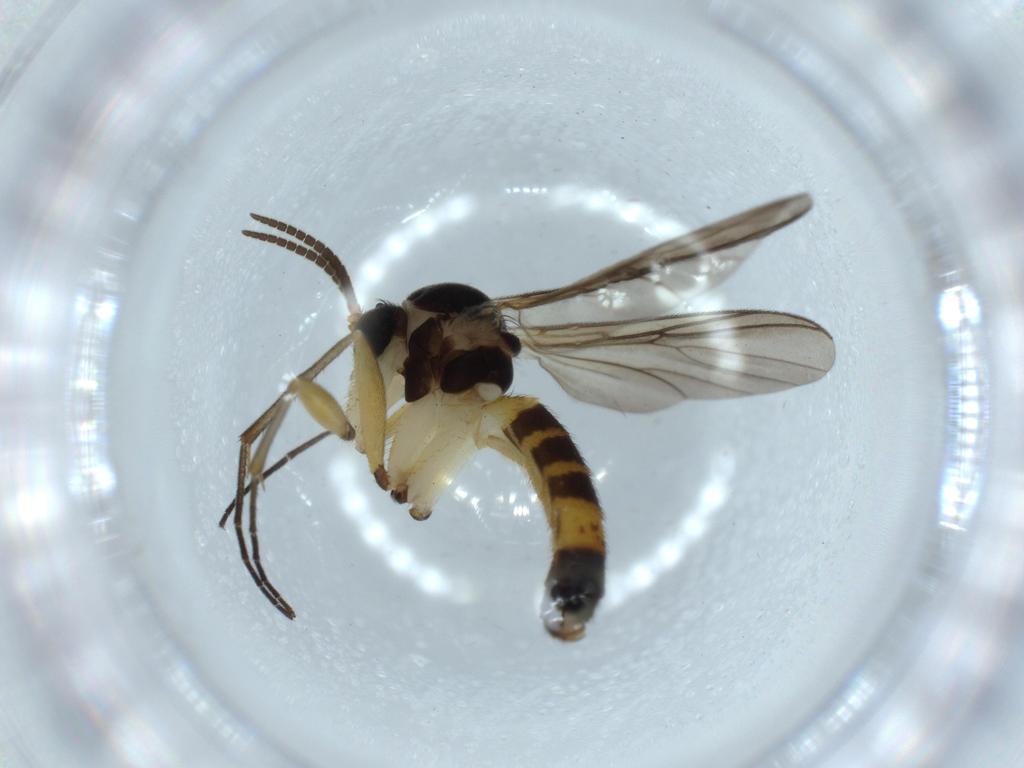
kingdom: Animalia
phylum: Arthropoda
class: Insecta
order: Diptera
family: Phoridae
